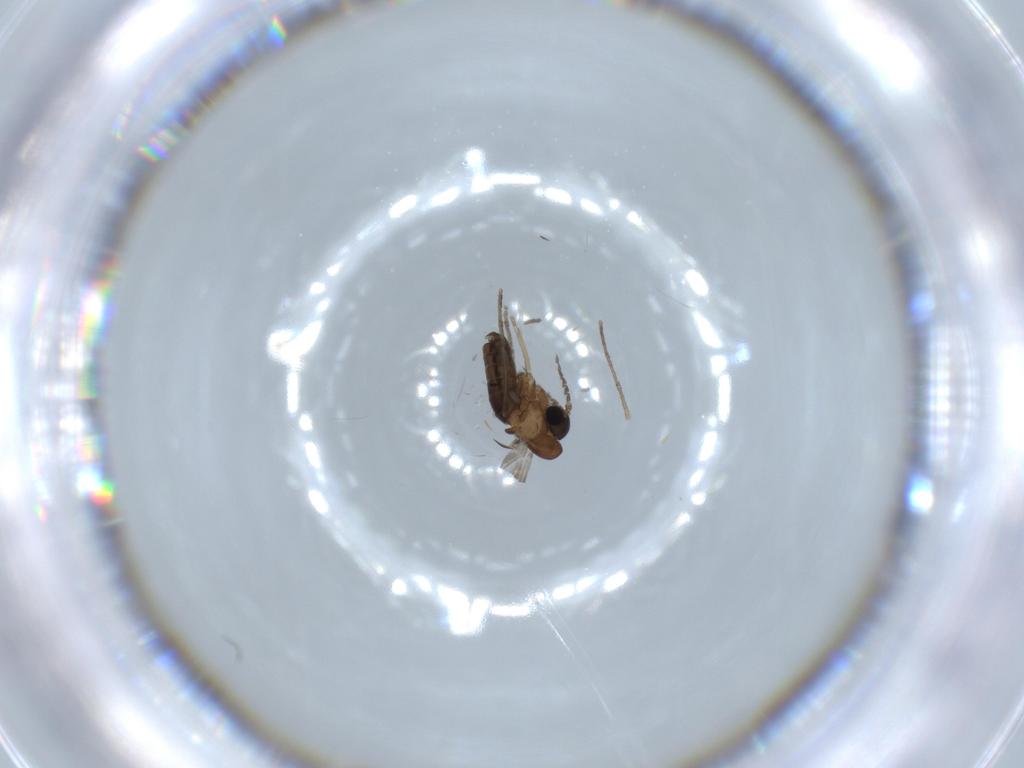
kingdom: Animalia
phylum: Arthropoda
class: Insecta
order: Diptera
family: Psychodidae
